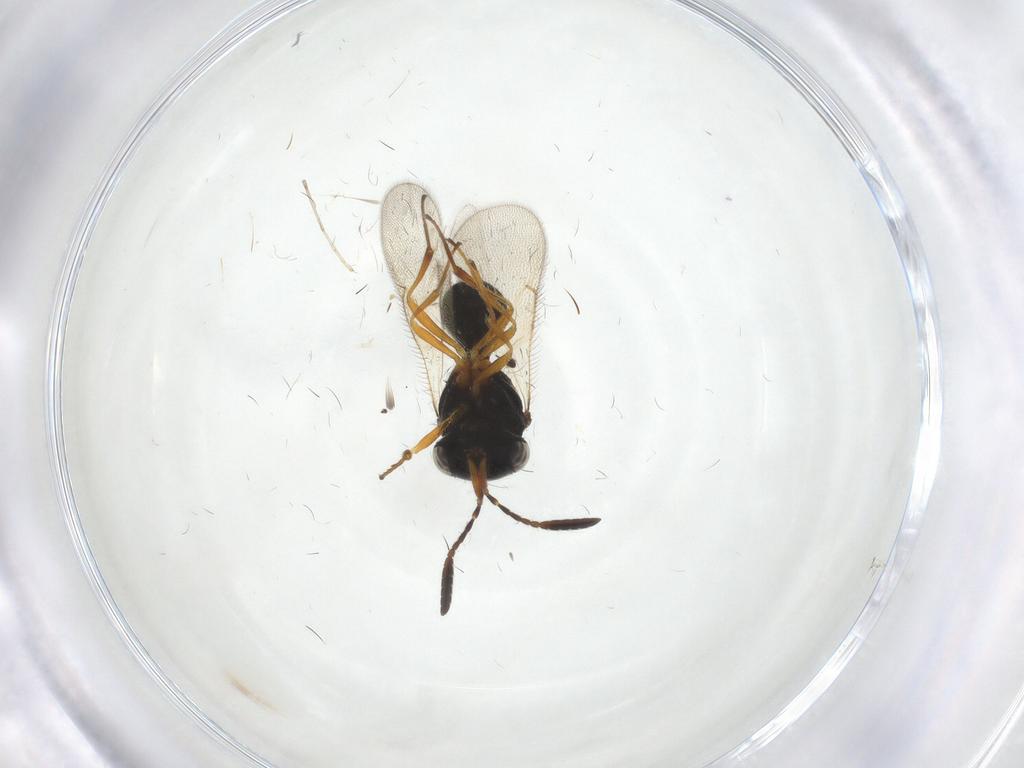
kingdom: Animalia
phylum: Arthropoda
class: Insecta
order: Hymenoptera
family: Scelionidae
